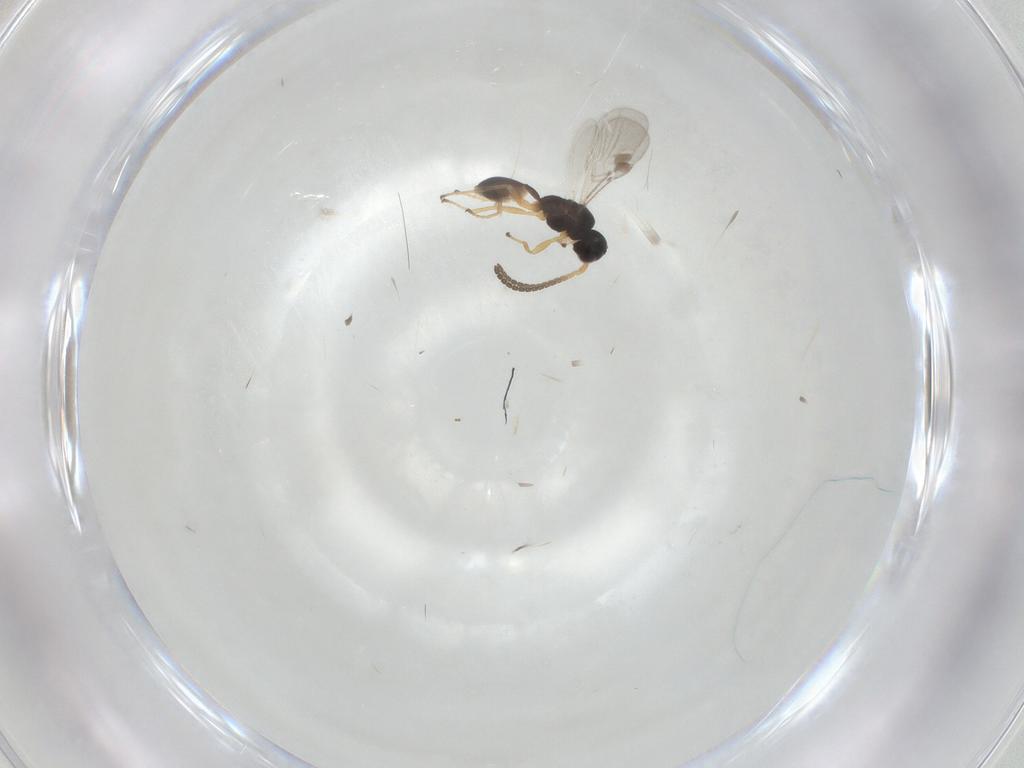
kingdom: Animalia
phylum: Arthropoda
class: Insecta
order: Hymenoptera
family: Braconidae
